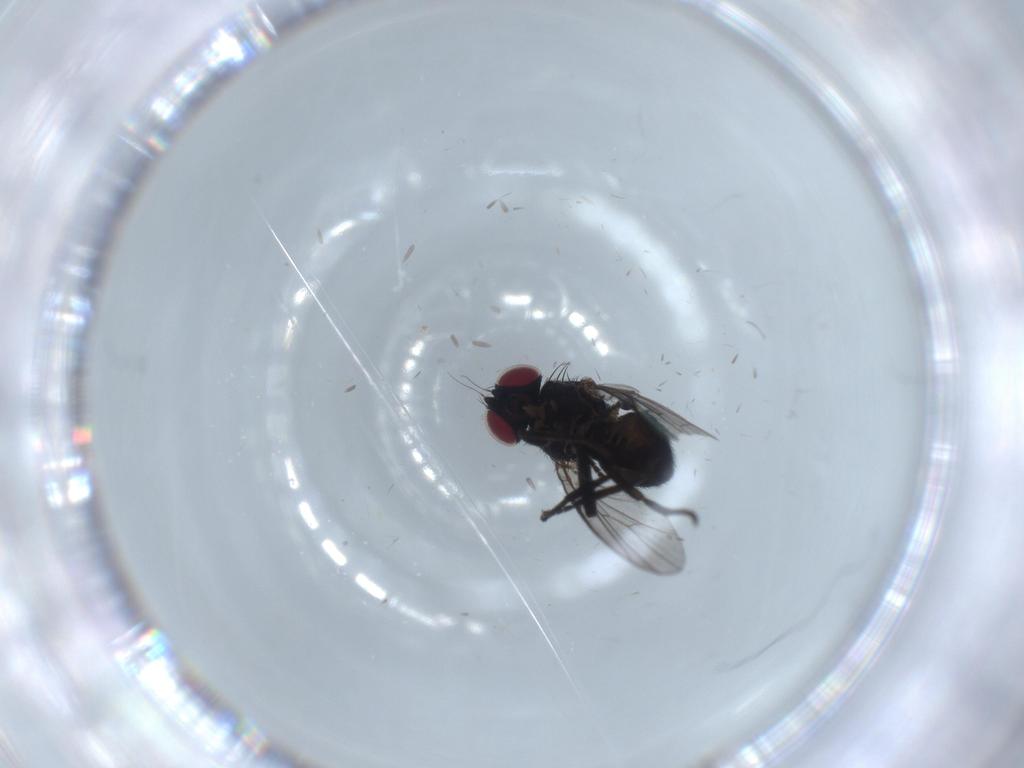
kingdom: Animalia
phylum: Arthropoda
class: Insecta
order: Diptera
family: Agromyzidae
